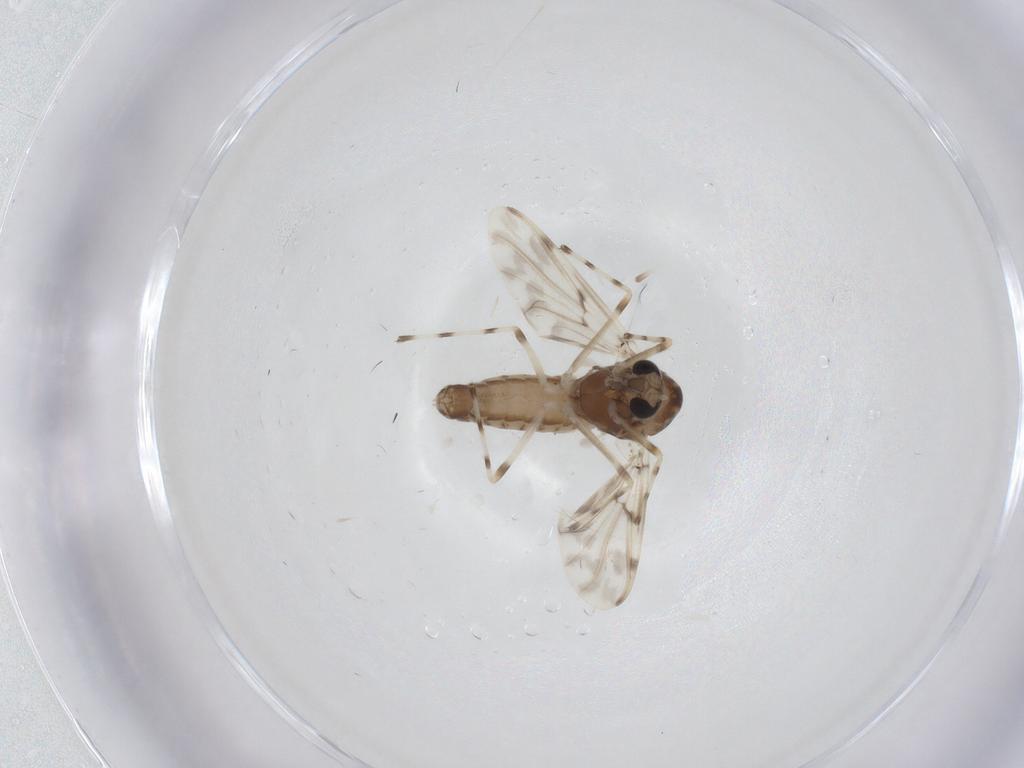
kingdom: Animalia
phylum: Arthropoda
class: Insecta
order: Diptera
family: Chironomidae
